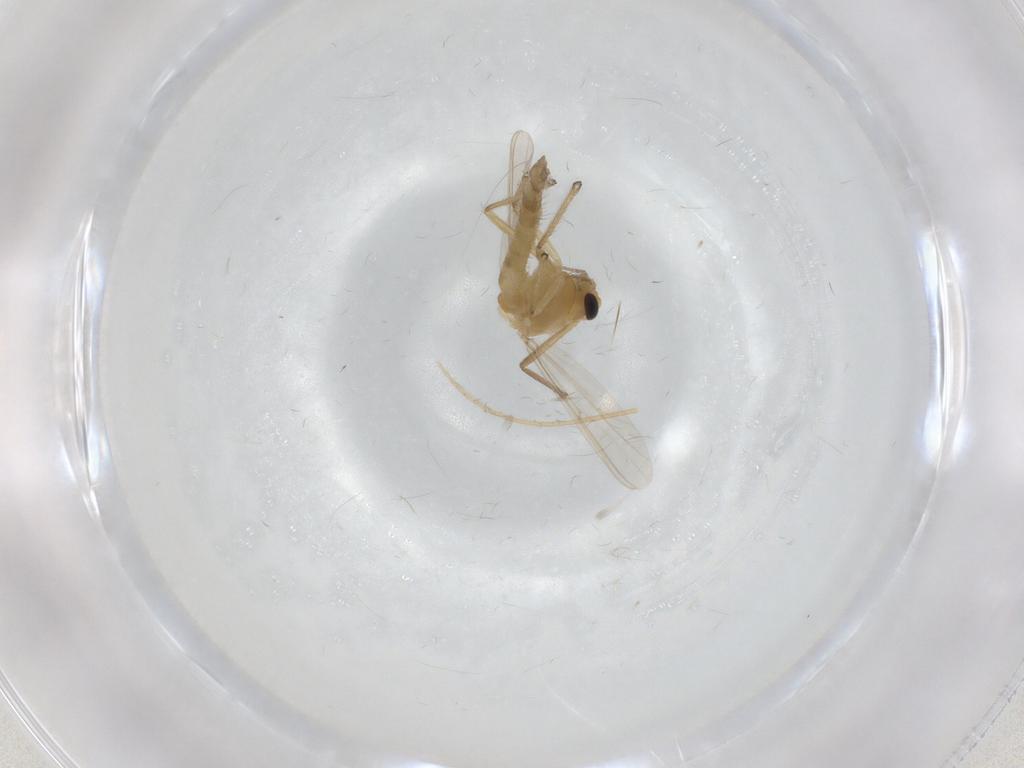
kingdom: Animalia
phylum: Arthropoda
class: Insecta
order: Diptera
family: Chironomidae
